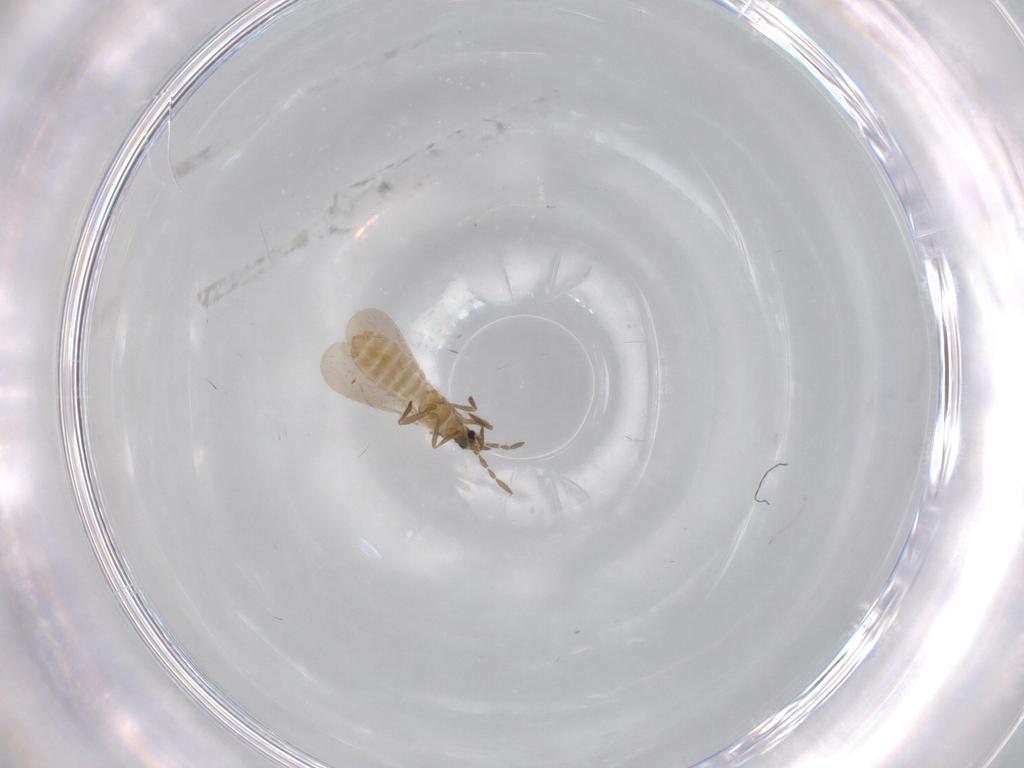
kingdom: Animalia
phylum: Arthropoda
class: Insecta
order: Hemiptera
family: Enicocephalidae
